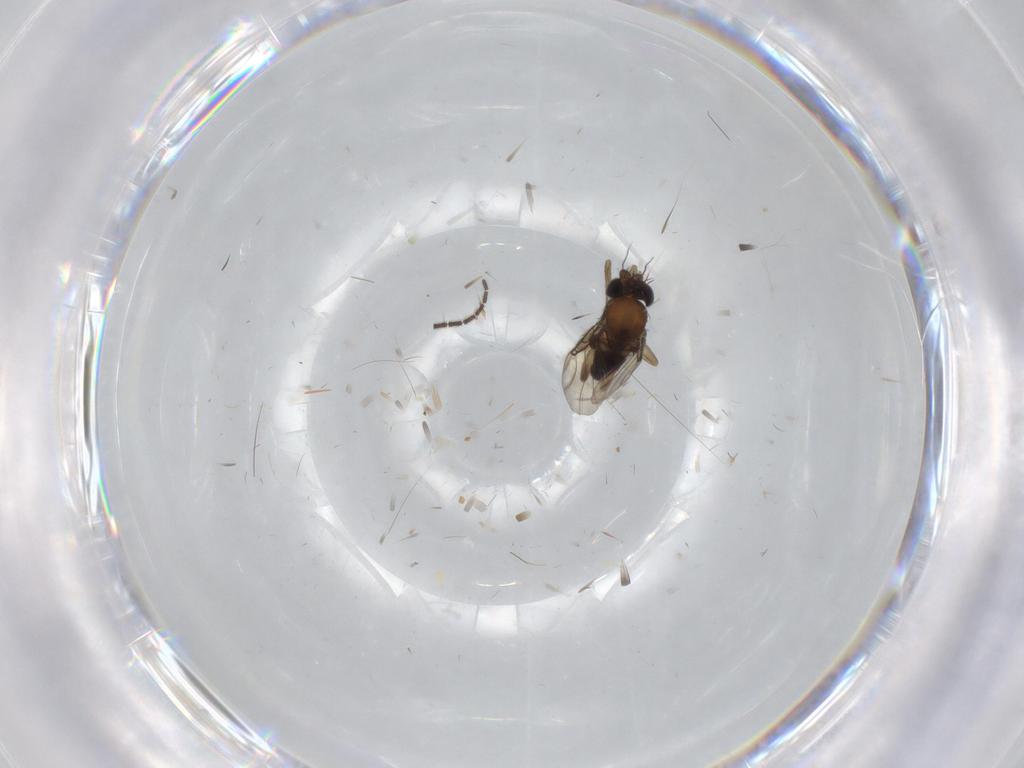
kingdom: Animalia
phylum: Arthropoda
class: Insecta
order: Diptera
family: Phoridae
